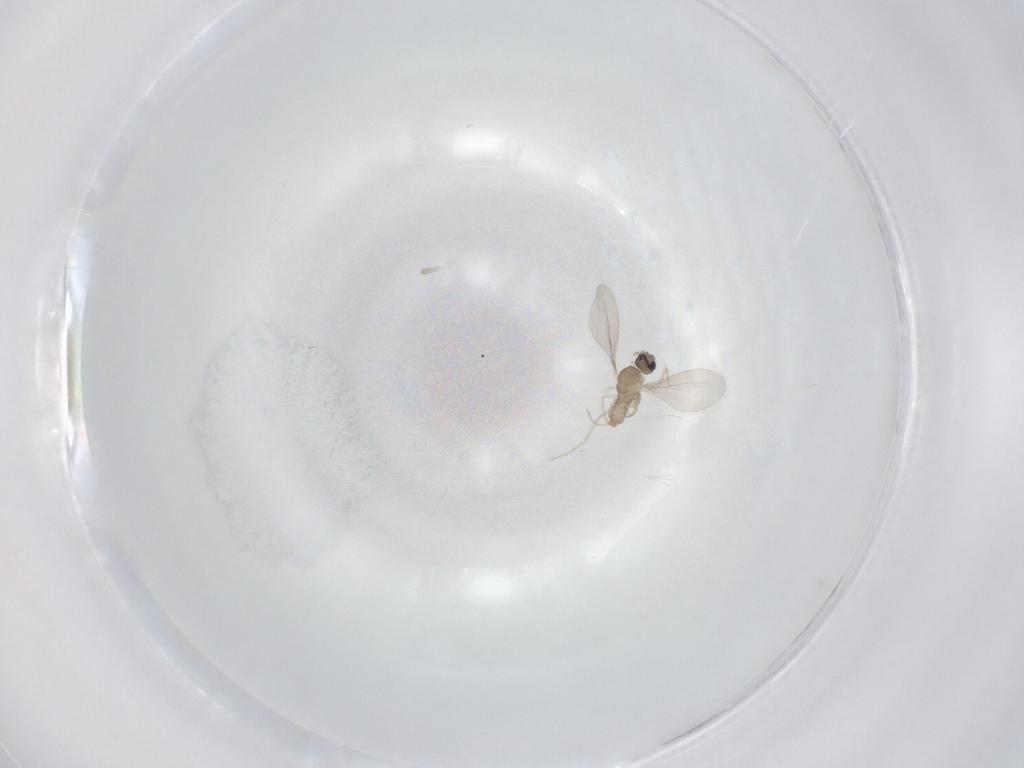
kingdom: Animalia
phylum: Arthropoda
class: Insecta
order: Diptera
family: Cecidomyiidae
